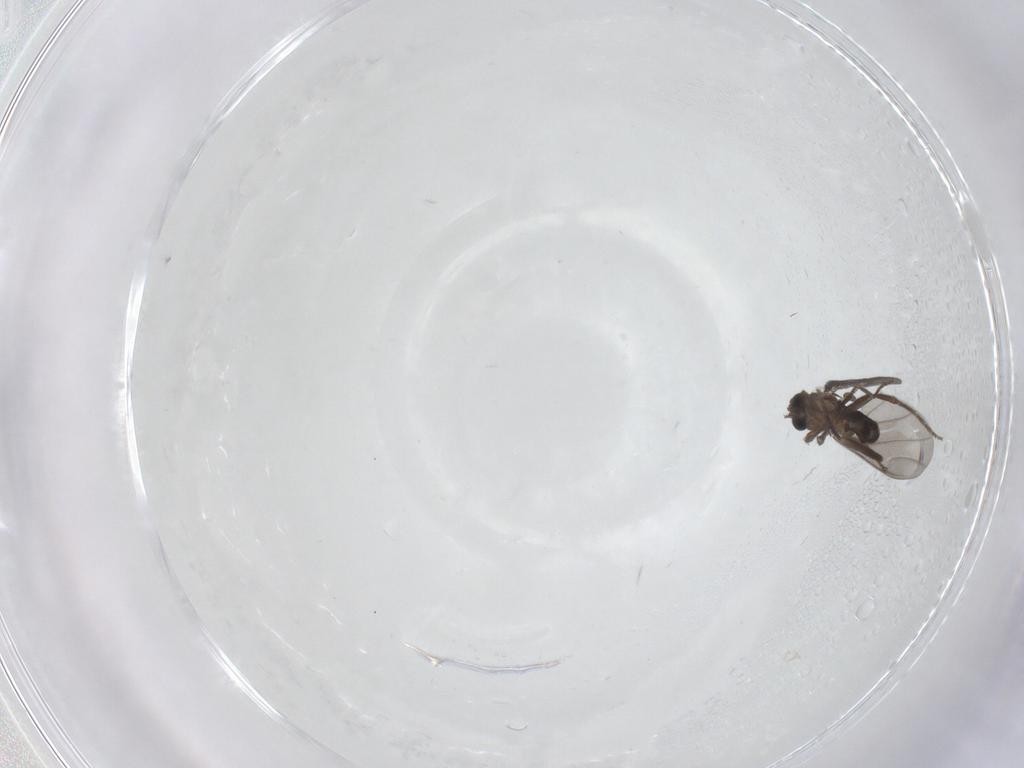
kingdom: Animalia
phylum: Arthropoda
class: Insecta
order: Diptera
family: Phoridae
